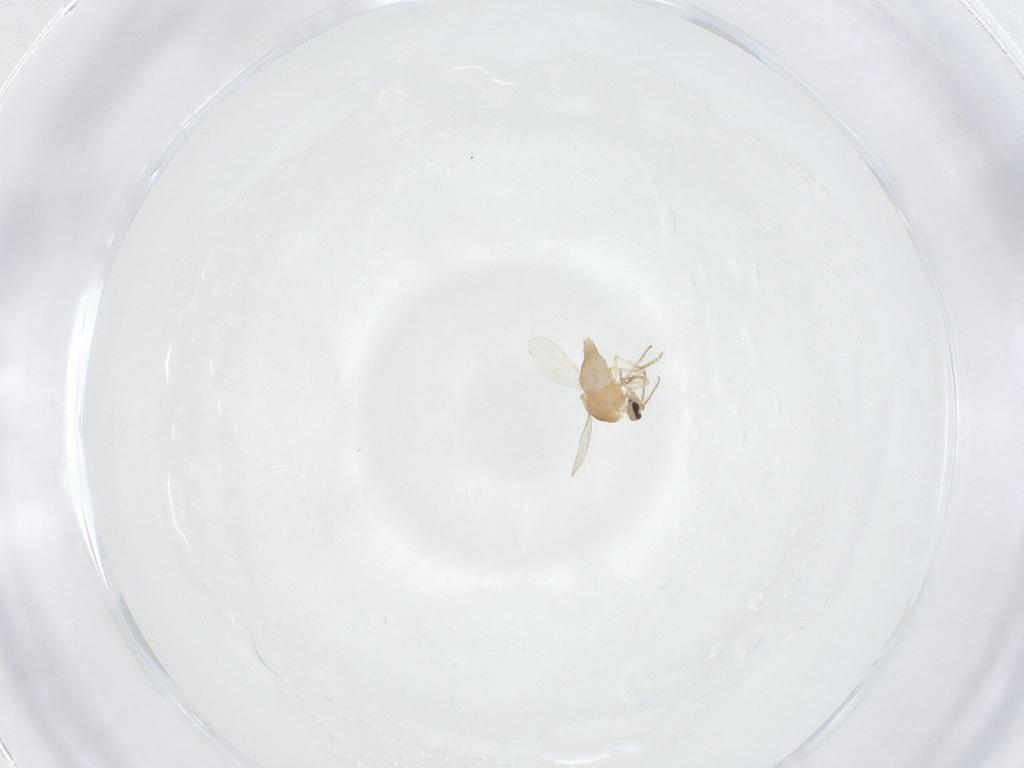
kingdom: Animalia
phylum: Arthropoda
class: Insecta
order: Diptera
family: Ceratopogonidae
